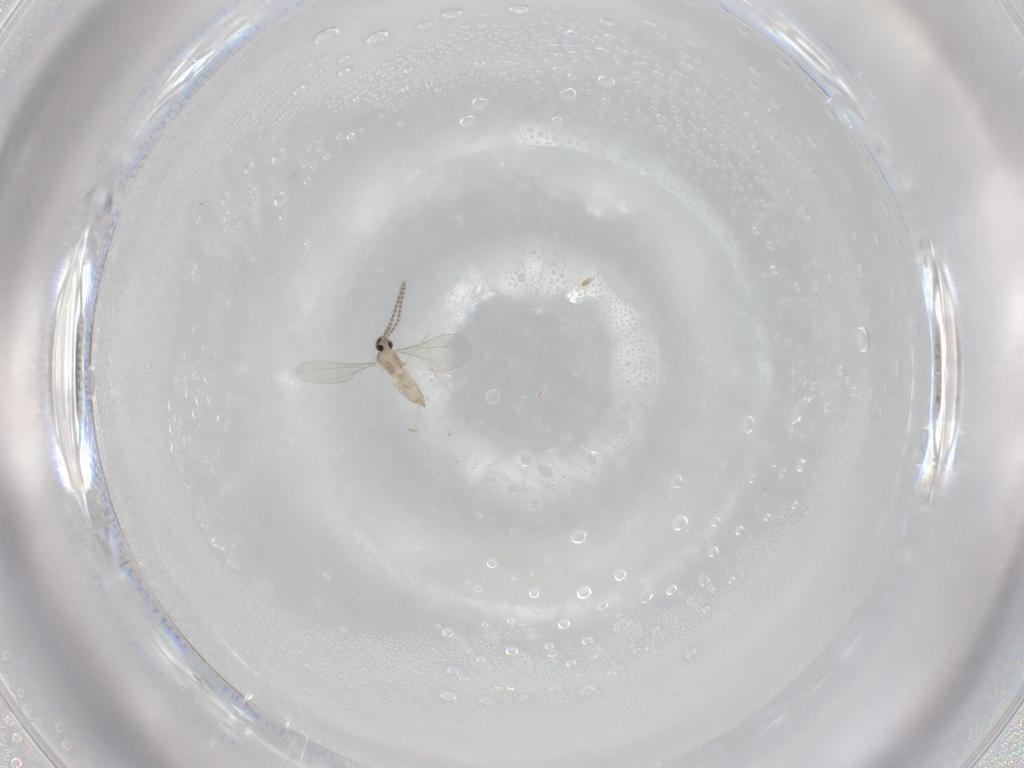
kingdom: Animalia
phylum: Arthropoda
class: Insecta
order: Diptera
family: Cecidomyiidae
